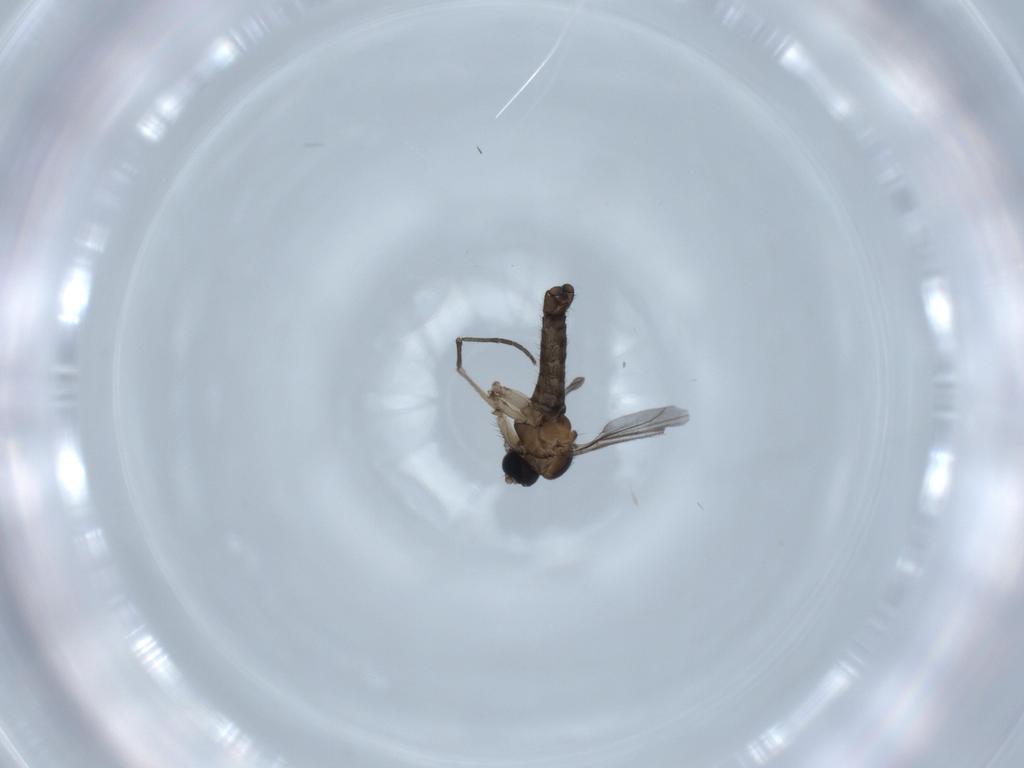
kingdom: Animalia
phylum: Arthropoda
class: Insecta
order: Diptera
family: Sciaridae
